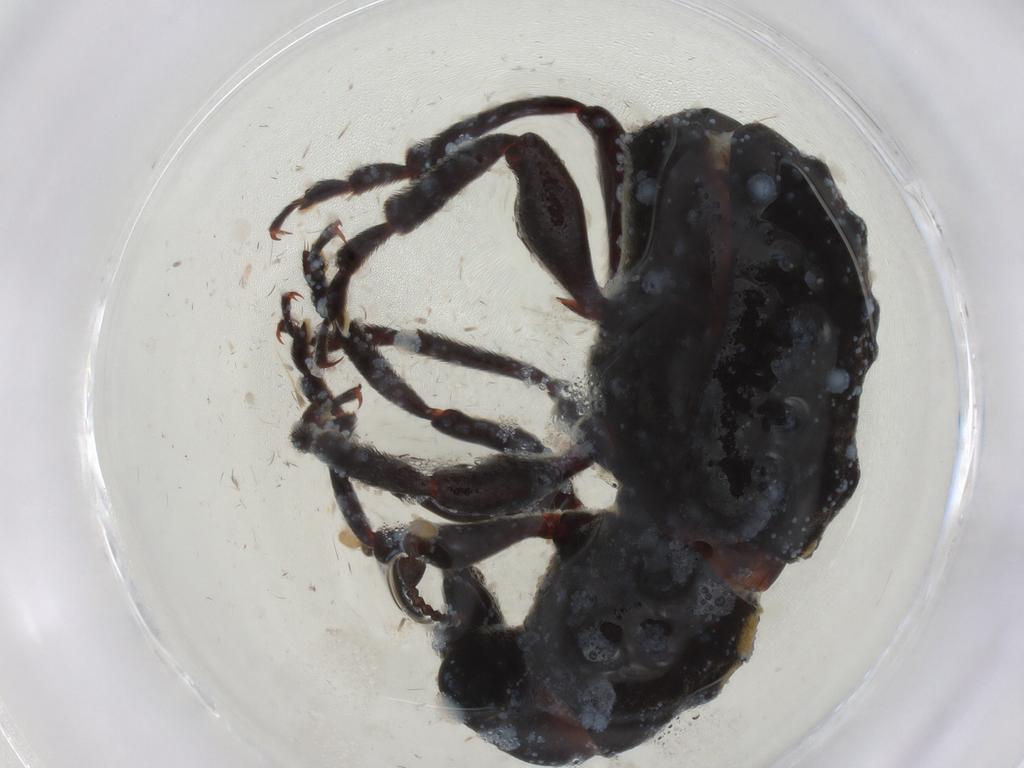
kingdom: Animalia
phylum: Arthropoda
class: Insecta
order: Coleoptera
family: Anthribidae
